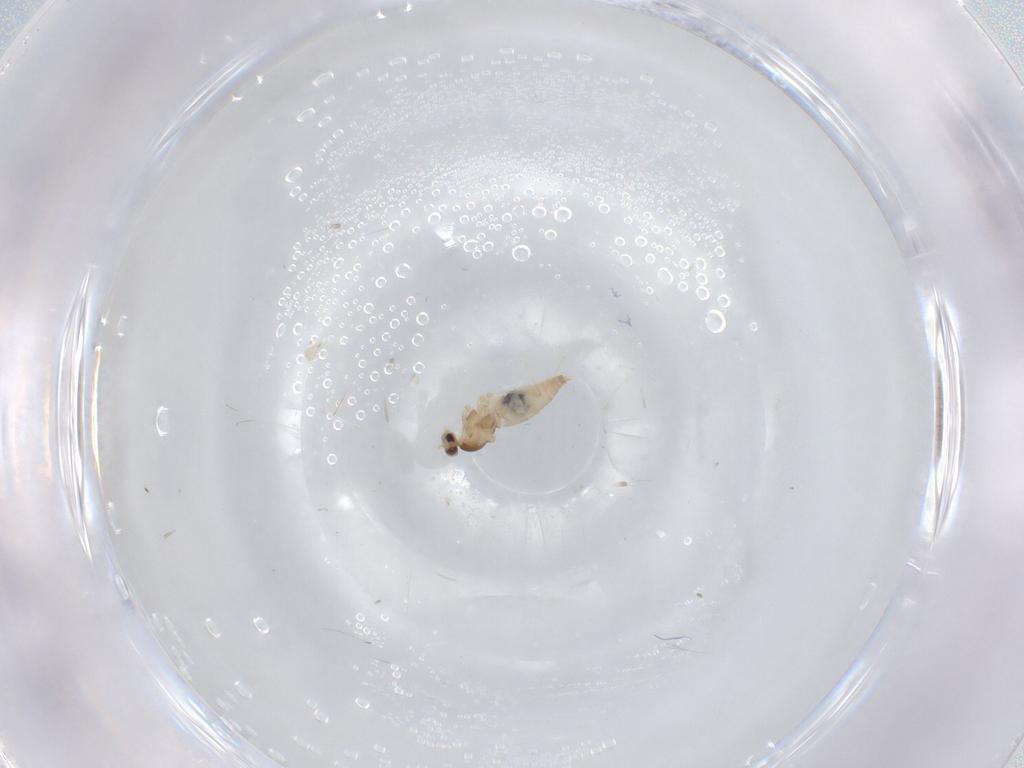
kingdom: Animalia
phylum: Arthropoda
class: Insecta
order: Diptera
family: Cecidomyiidae
